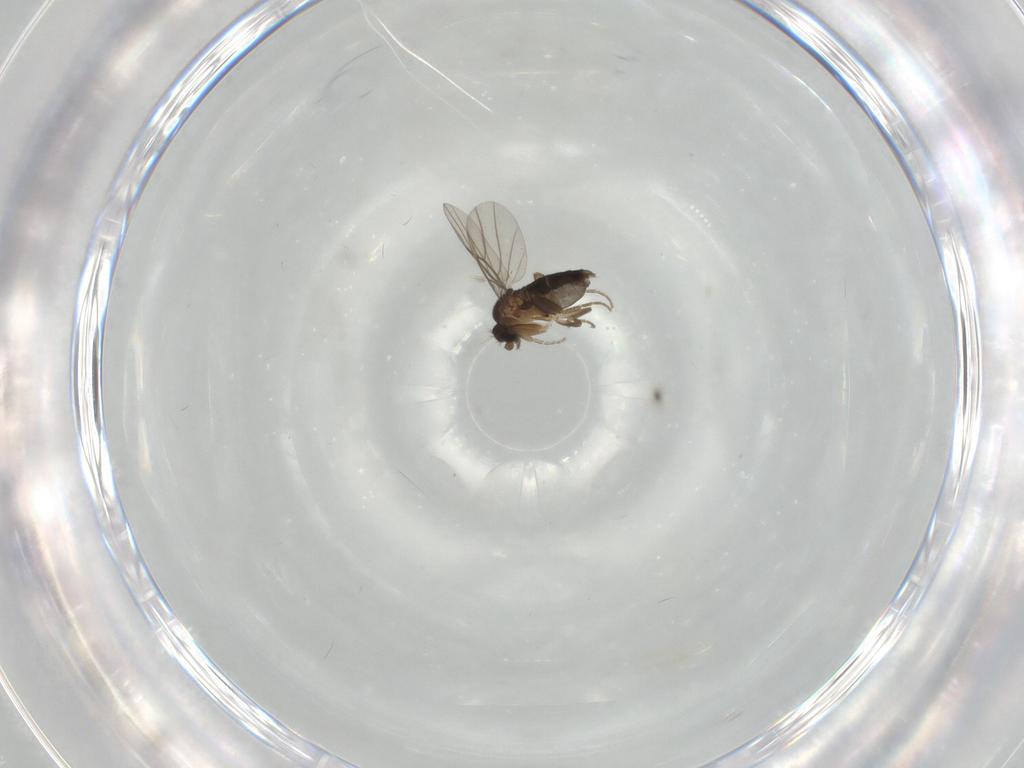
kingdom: Animalia
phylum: Arthropoda
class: Insecta
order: Diptera
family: Phoridae
